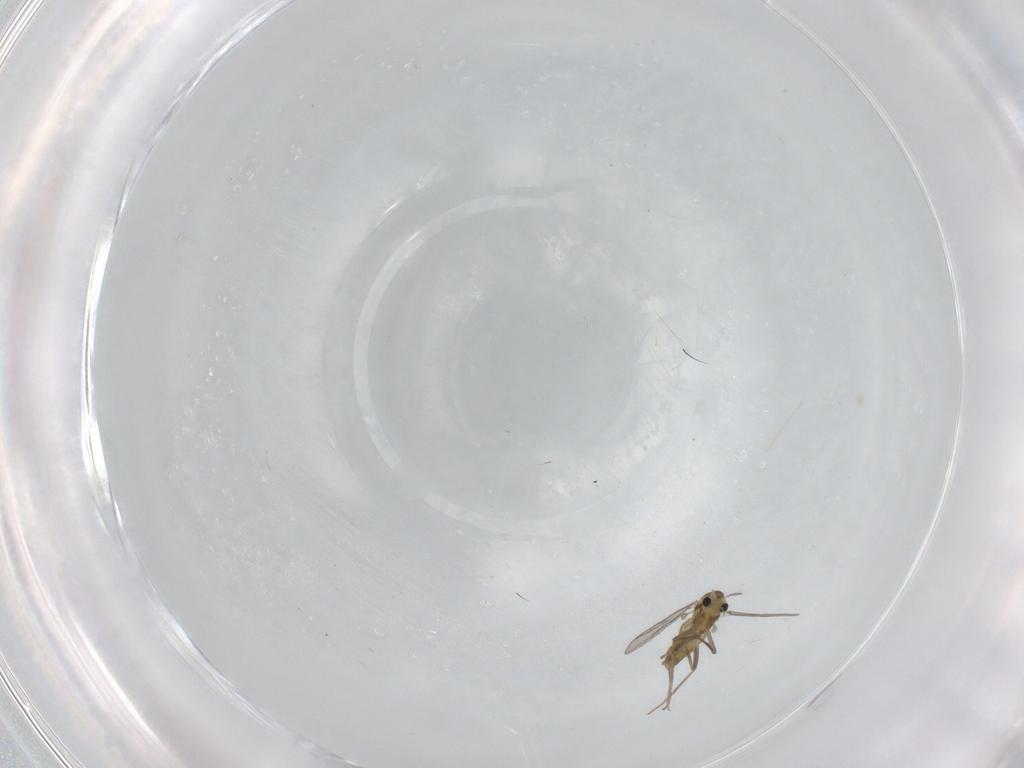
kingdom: Animalia
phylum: Arthropoda
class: Insecta
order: Diptera
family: Chironomidae
